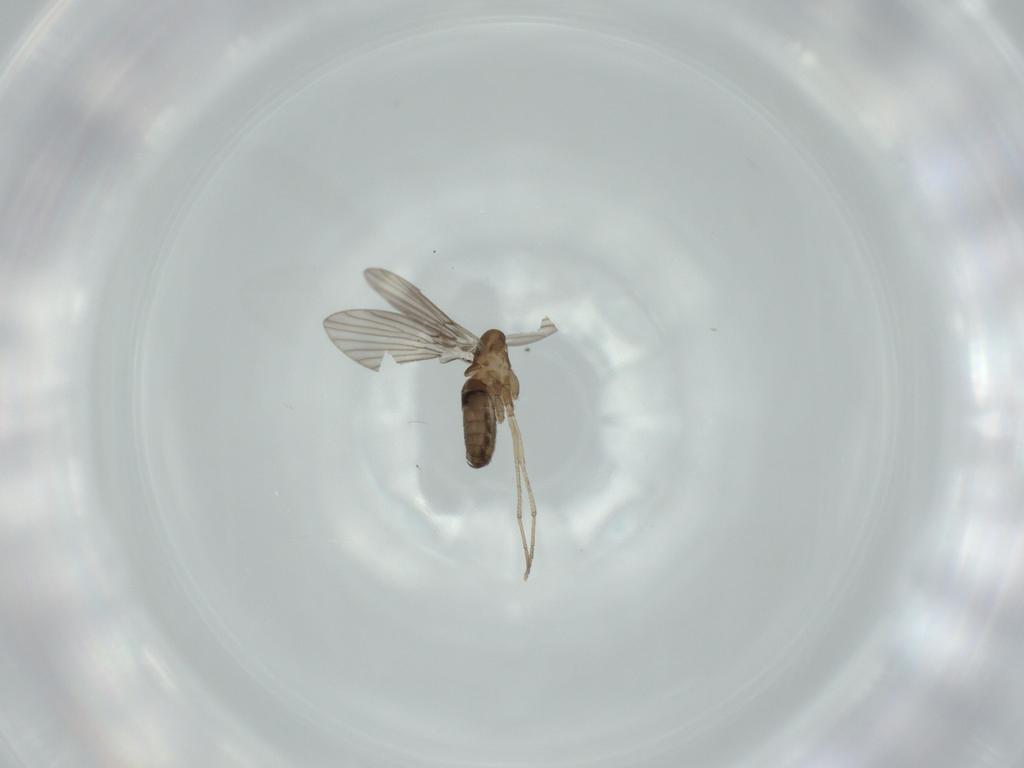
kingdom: Animalia
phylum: Arthropoda
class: Insecta
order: Diptera
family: Psychodidae
